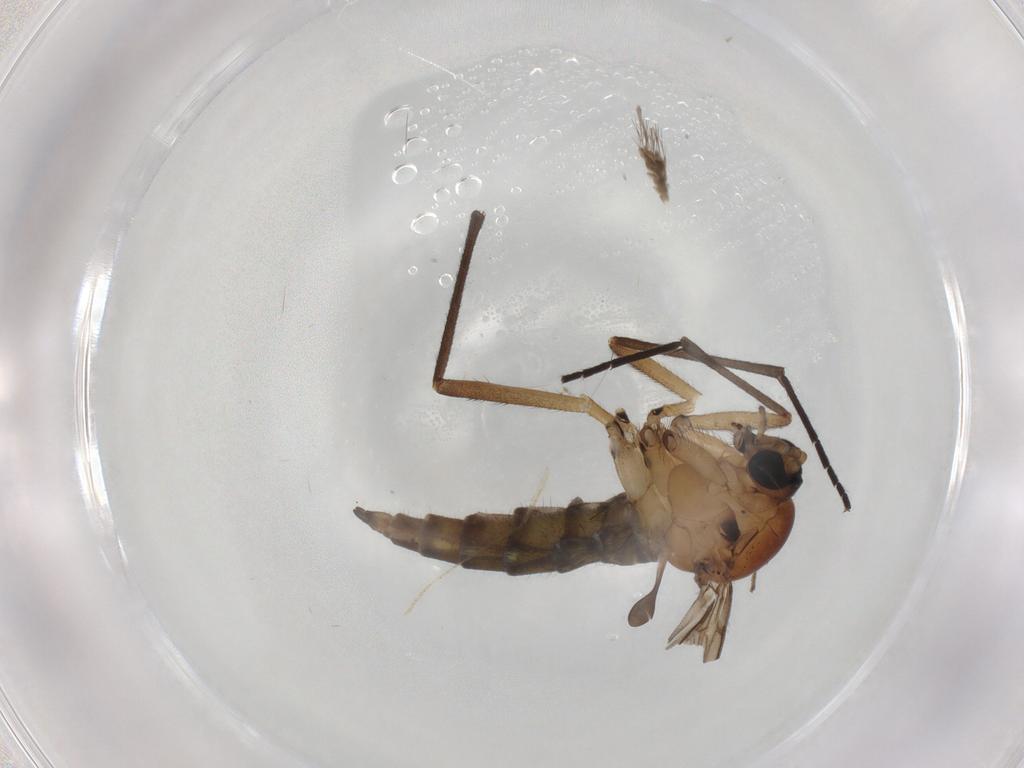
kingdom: Animalia
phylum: Arthropoda
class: Insecta
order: Diptera
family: Sciaridae
